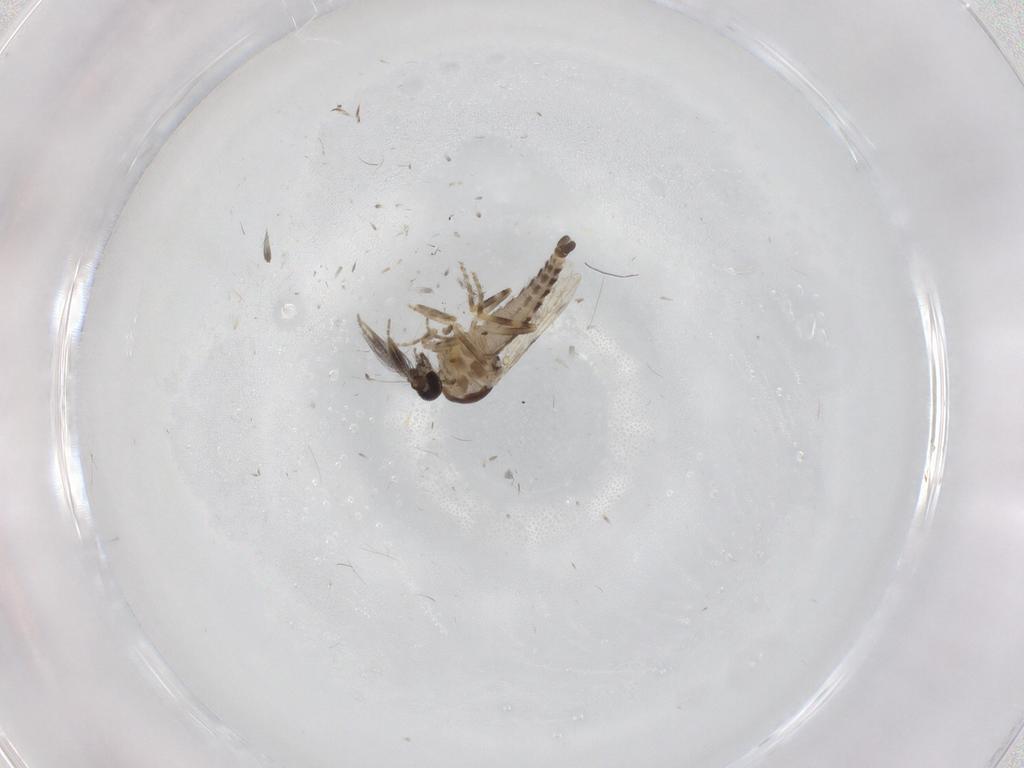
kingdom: Animalia
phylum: Arthropoda
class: Insecta
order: Diptera
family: Ceratopogonidae
